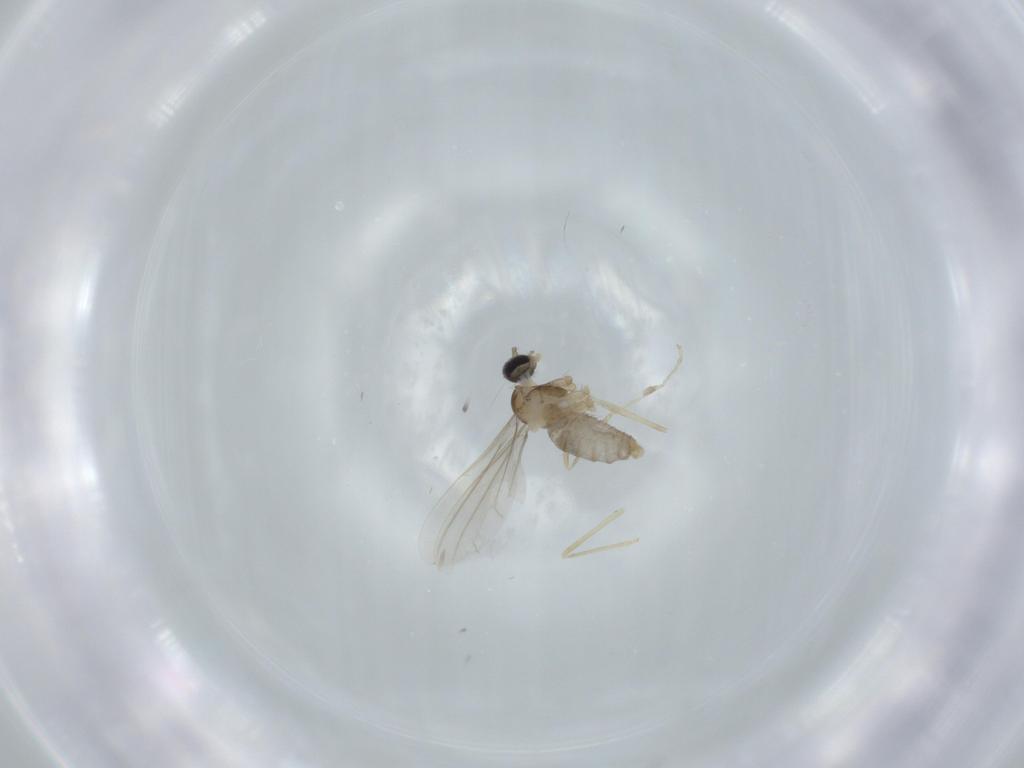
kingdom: Animalia
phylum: Arthropoda
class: Insecta
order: Diptera
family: Cecidomyiidae
